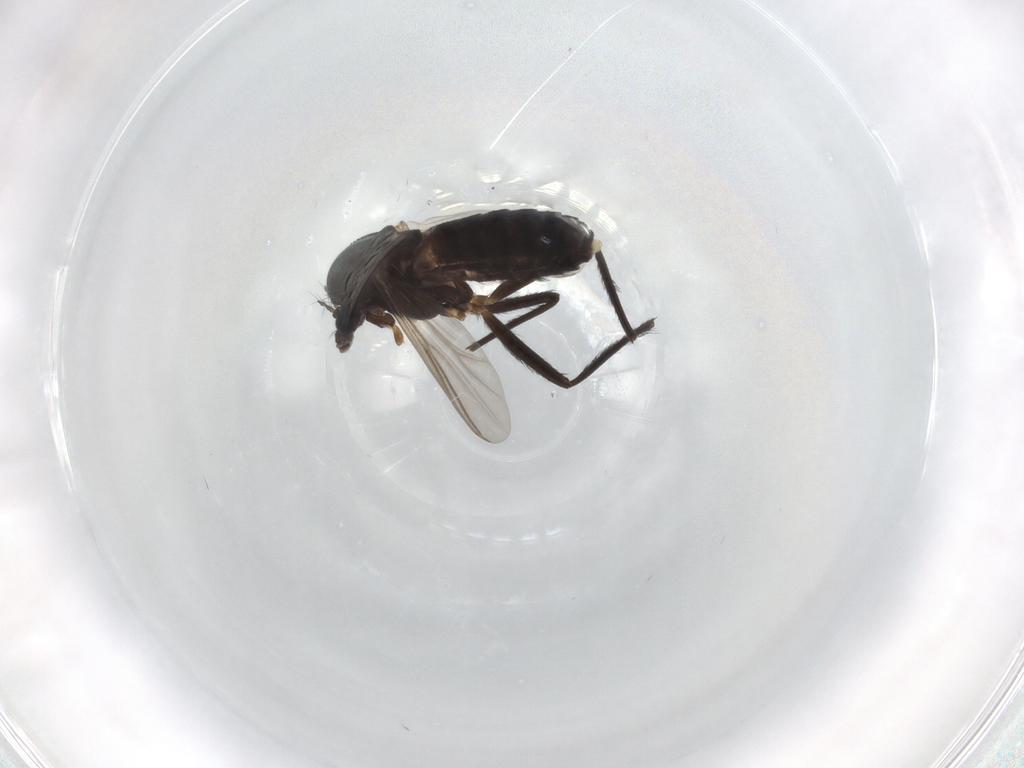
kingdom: Animalia
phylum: Arthropoda
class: Insecta
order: Diptera
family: Chironomidae
